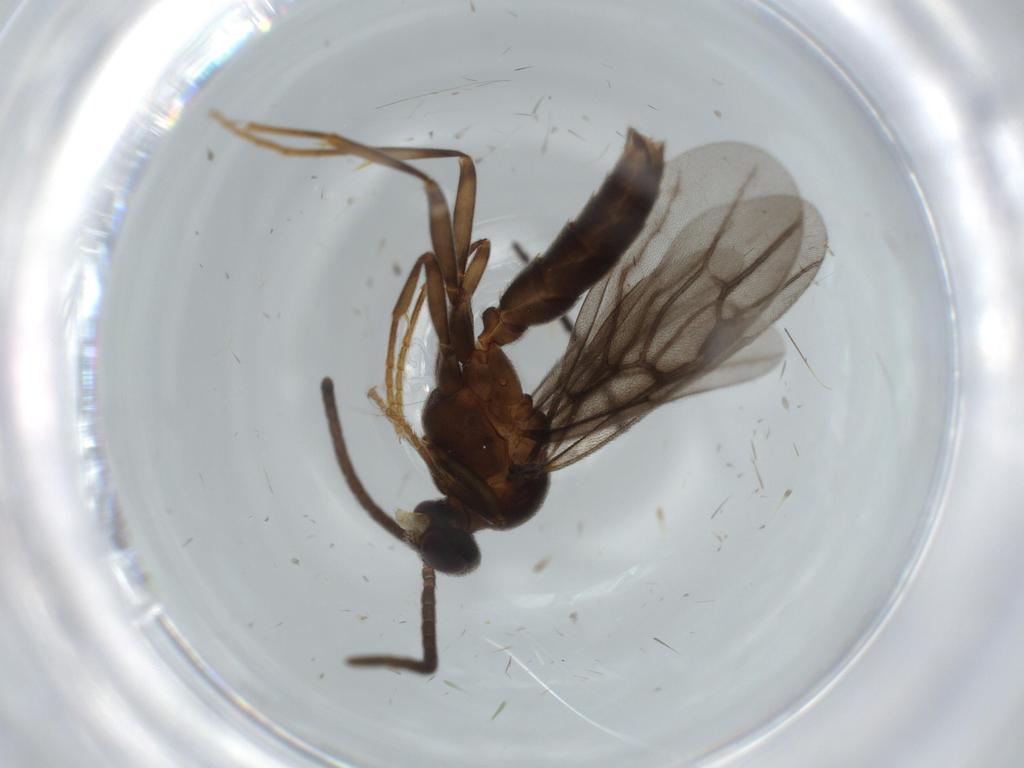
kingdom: Animalia
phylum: Arthropoda
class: Insecta
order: Hymenoptera
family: Formicidae
